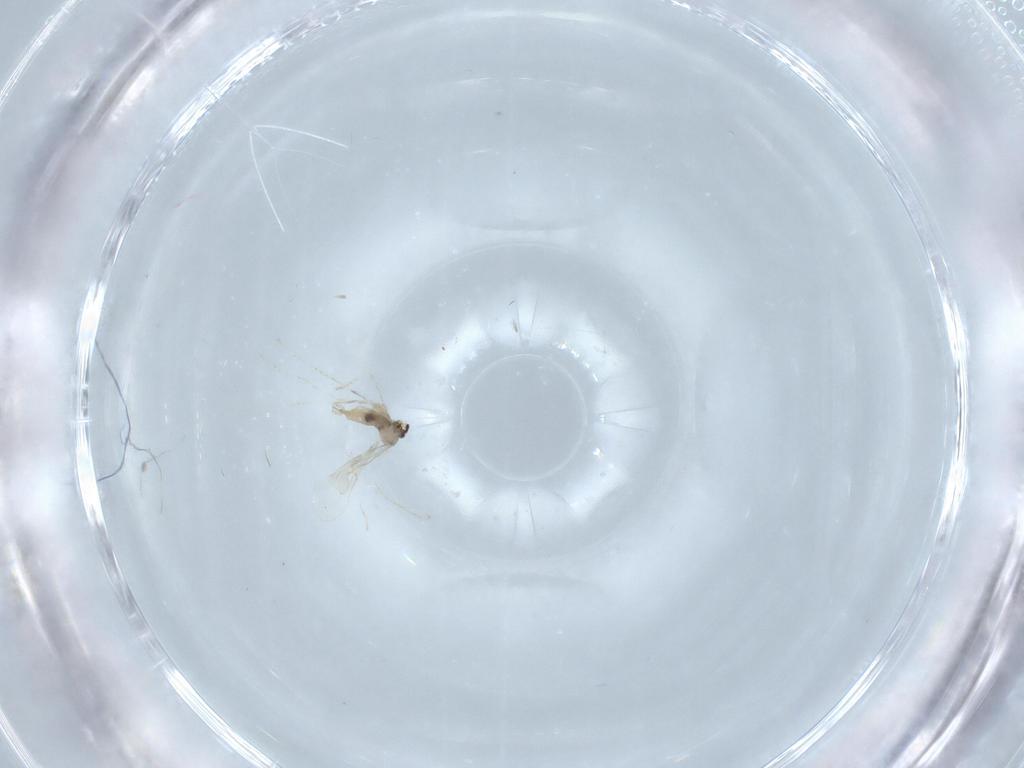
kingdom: Animalia
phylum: Arthropoda
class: Insecta
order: Diptera
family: Cecidomyiidae
